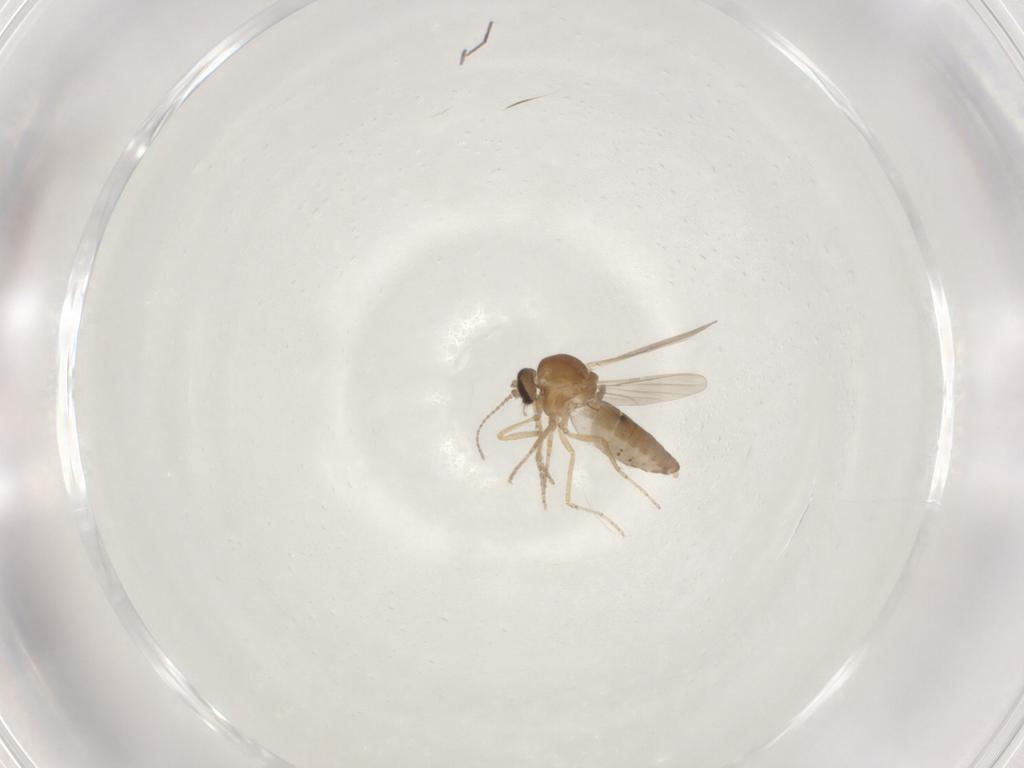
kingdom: Animalia
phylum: Arthropoda
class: Insecta
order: Diptera
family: Ceratopogonidae
